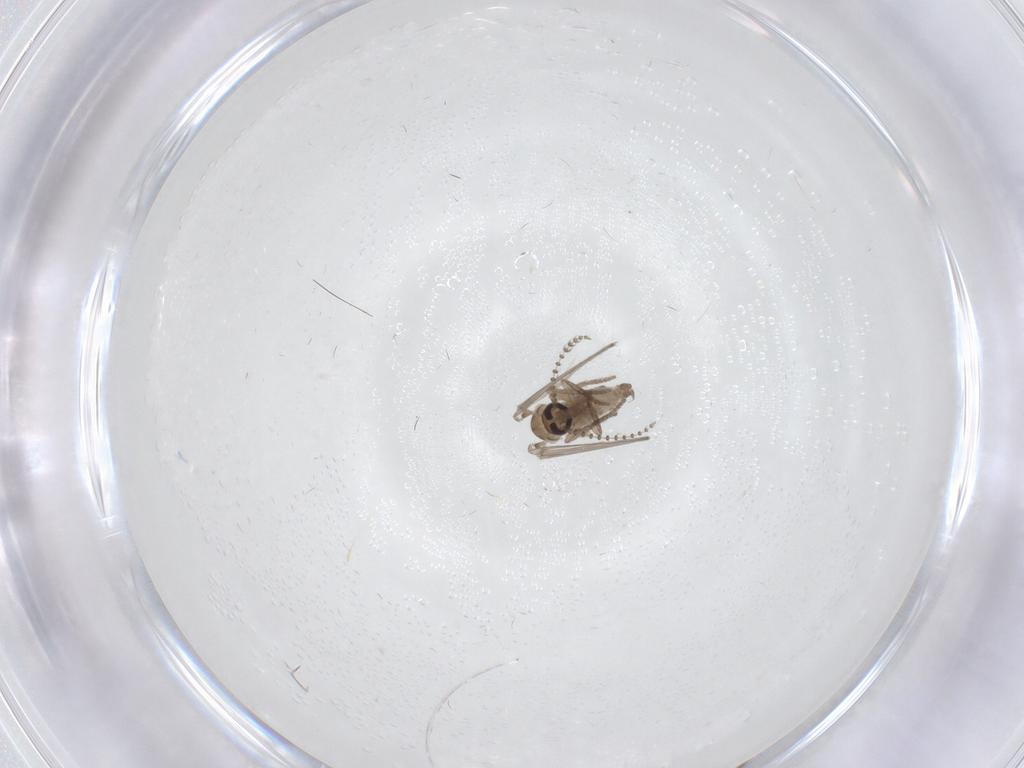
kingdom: Animalia
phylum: Arthropoda
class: Insecta
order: Diptera
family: Psychodidae
